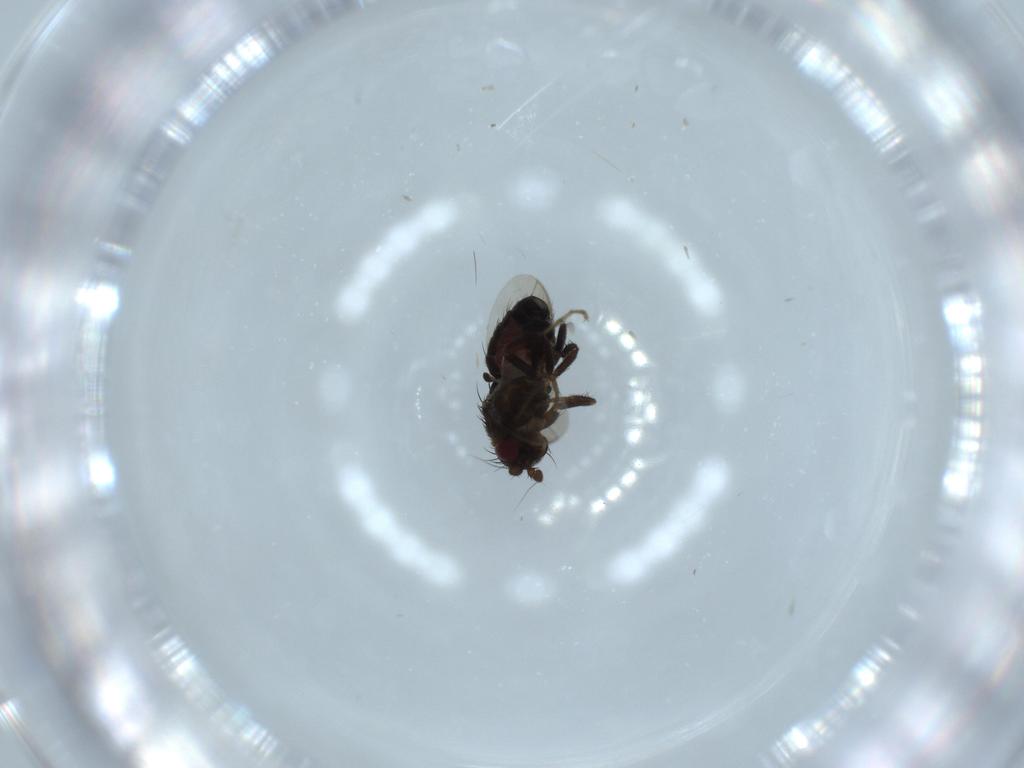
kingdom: Animalia
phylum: Arthropoda
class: Insecta
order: Diptera
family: Sphaeroceridae
